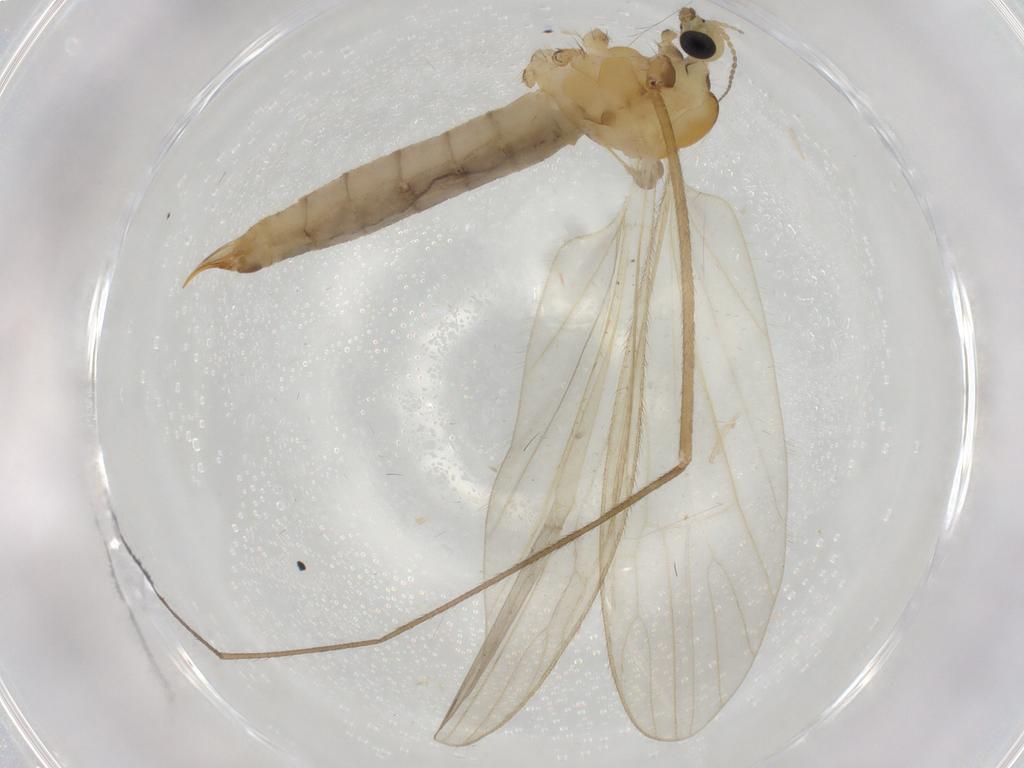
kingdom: Animalia
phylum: Arthropoda
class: Insecta
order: Diptera
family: Limoniidae
